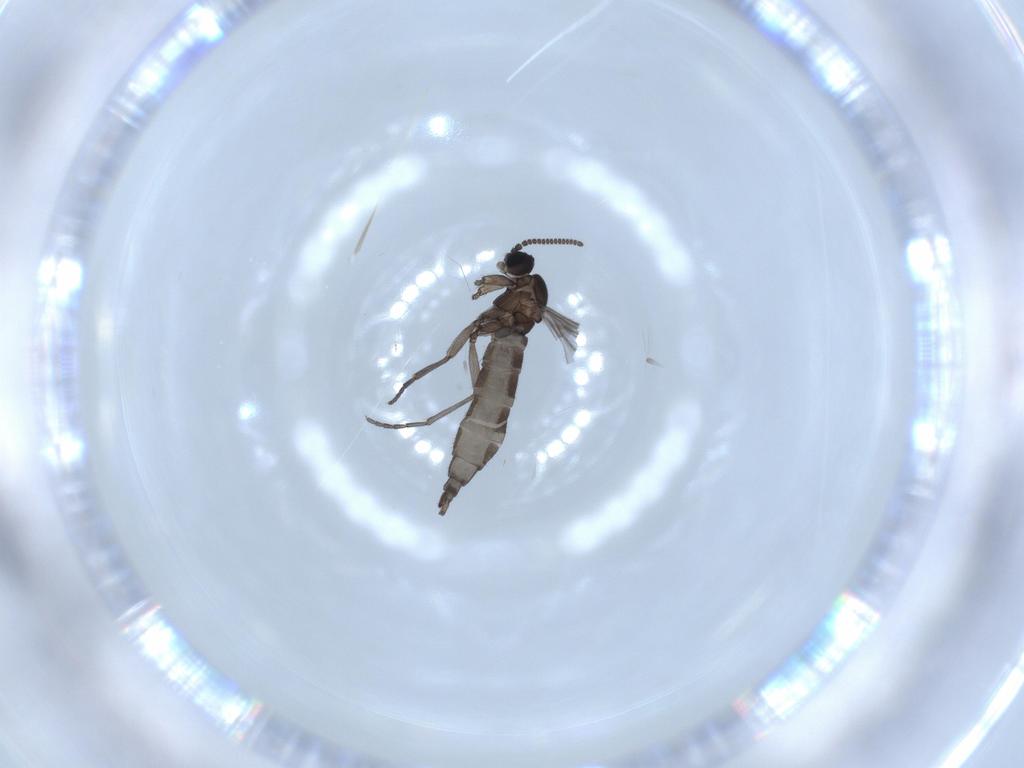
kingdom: Animalia
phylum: Arthropoda
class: Insecta
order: Diptera
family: Sciaridae
